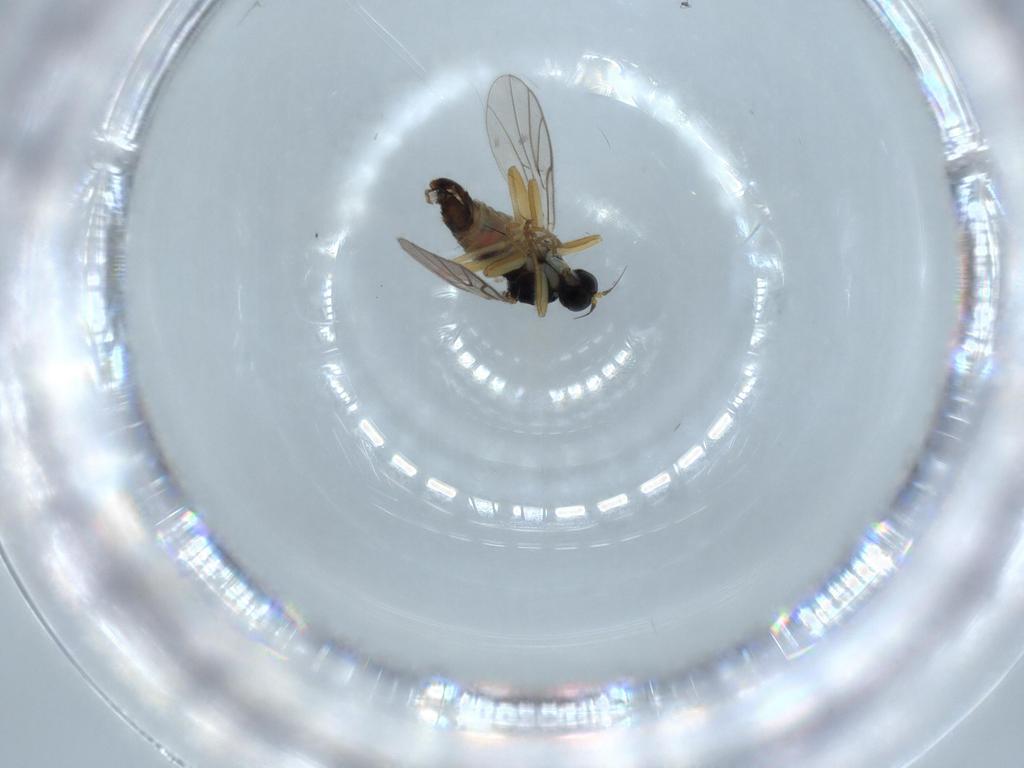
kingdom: Animalia
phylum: Arthropoda
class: Insecta
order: Diptera
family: Hybotidae
